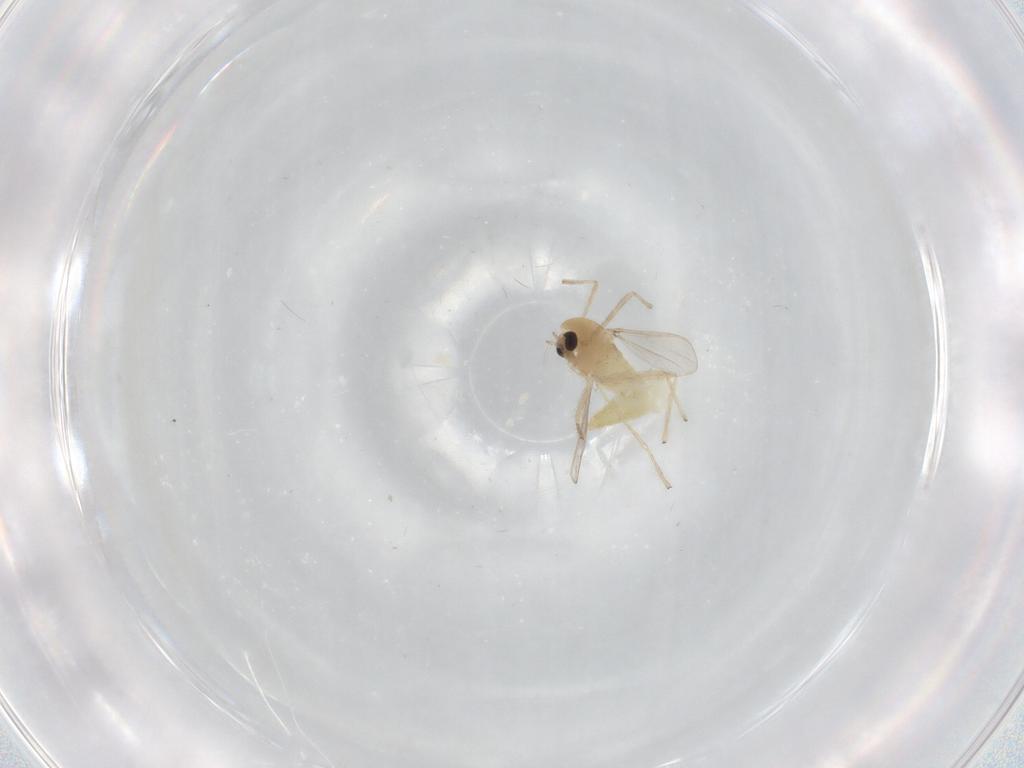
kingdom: Animalia
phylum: Arthropoda
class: Insecta
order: Diptera
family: Chironomidae
